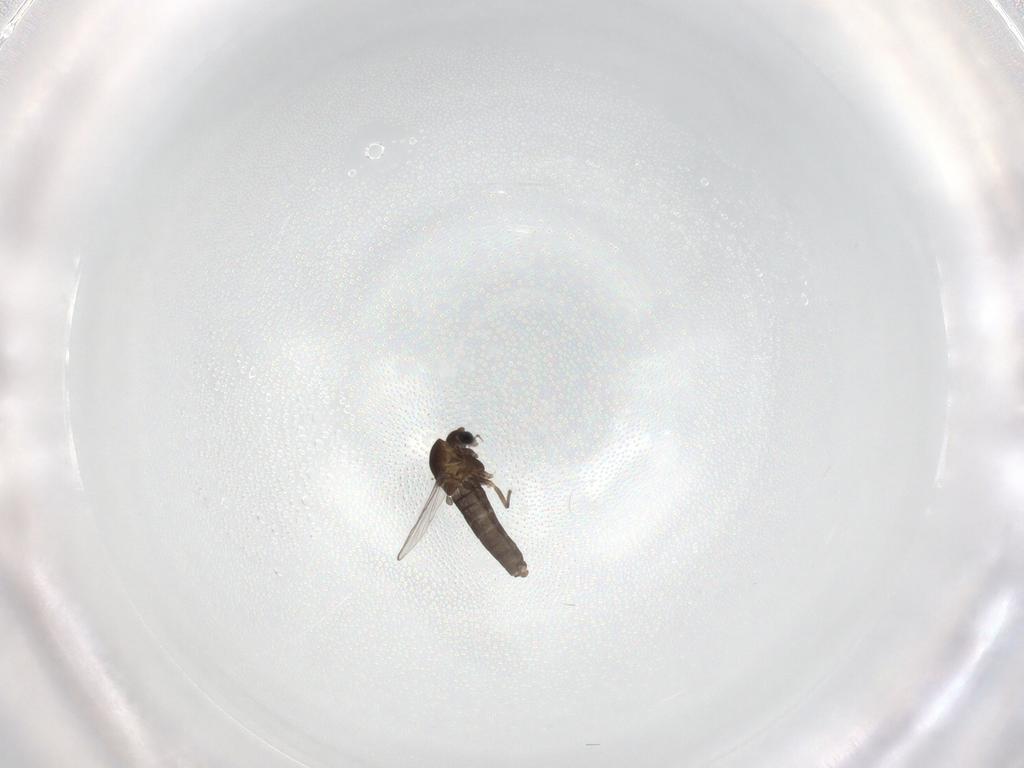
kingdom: Animalia
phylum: Arthropoda
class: Insecta
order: Diptera
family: Chironomidae
